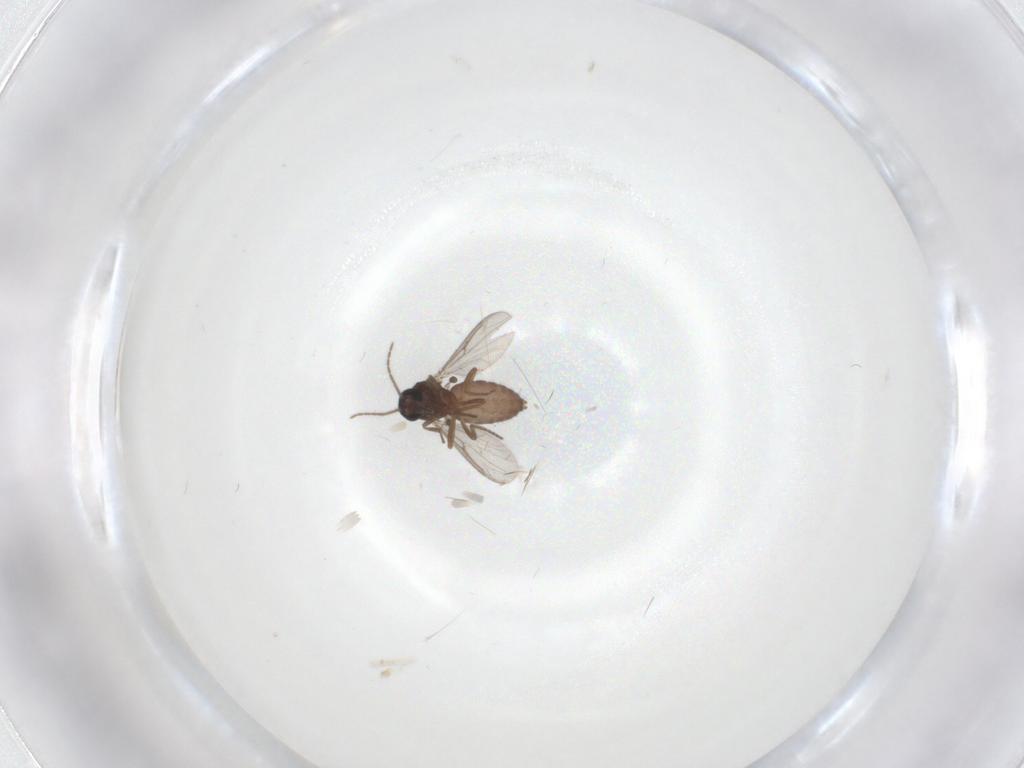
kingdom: Animalia
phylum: Arthropoda
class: Insecta
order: Diptera
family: Ceratopogonidae
